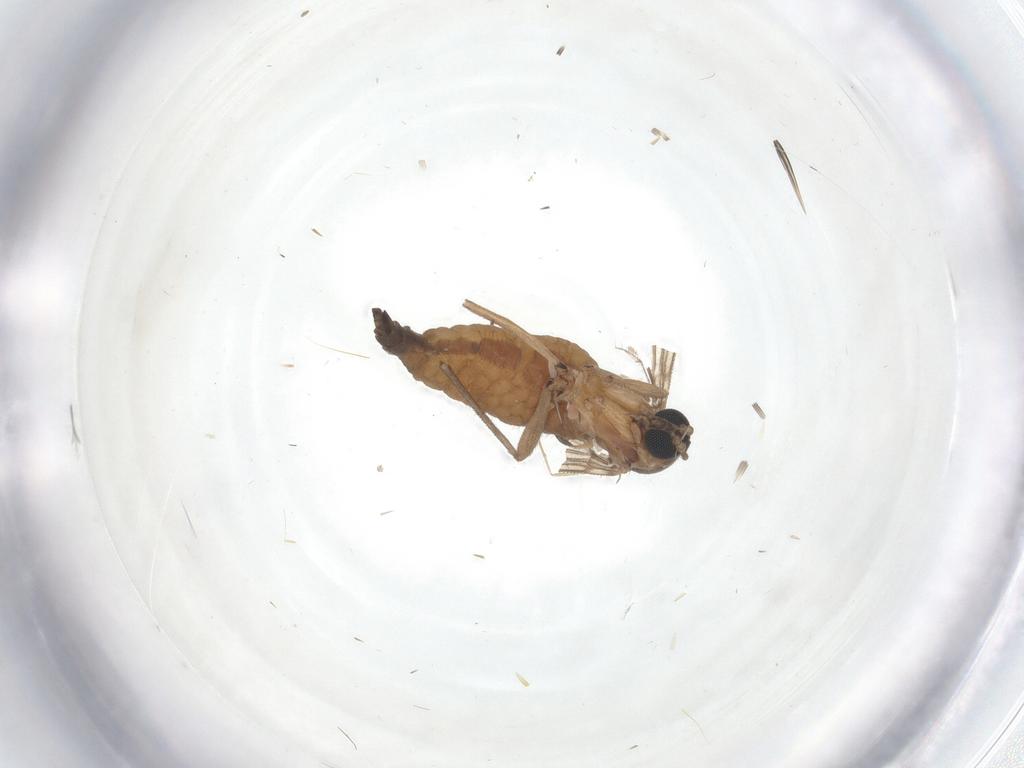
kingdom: Animalia
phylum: Arthropoda
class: Insecta
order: Diptera
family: Sciaridae
